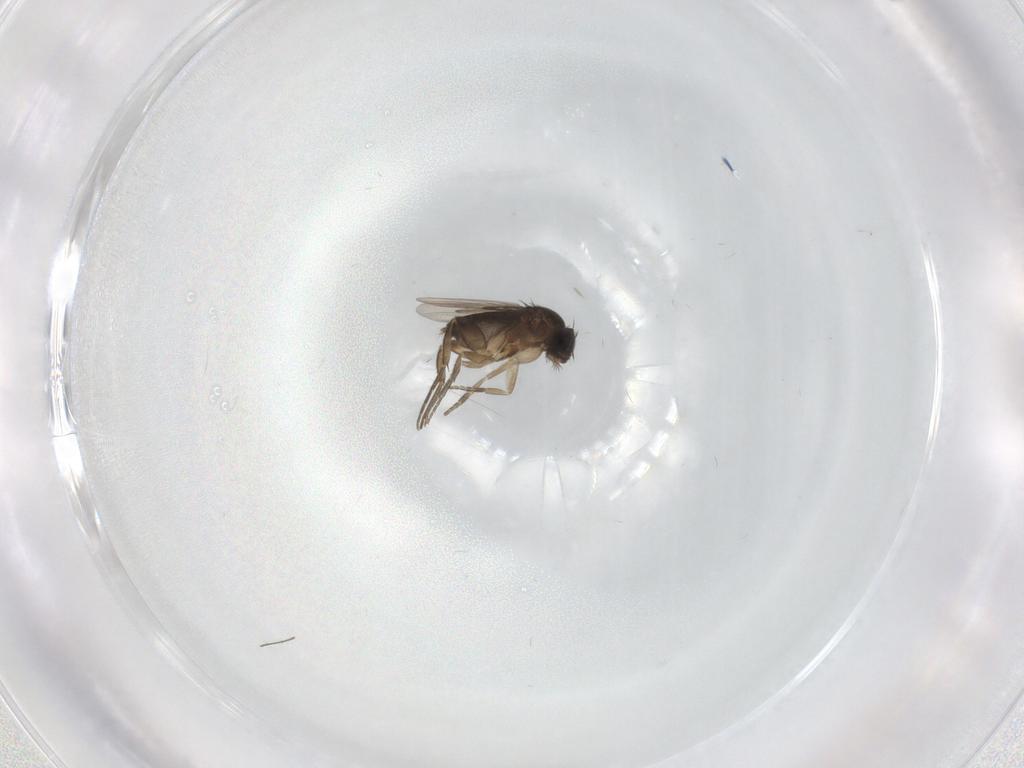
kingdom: Animalia
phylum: Arthropoda
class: Insecta
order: Diptera
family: Phoridae
